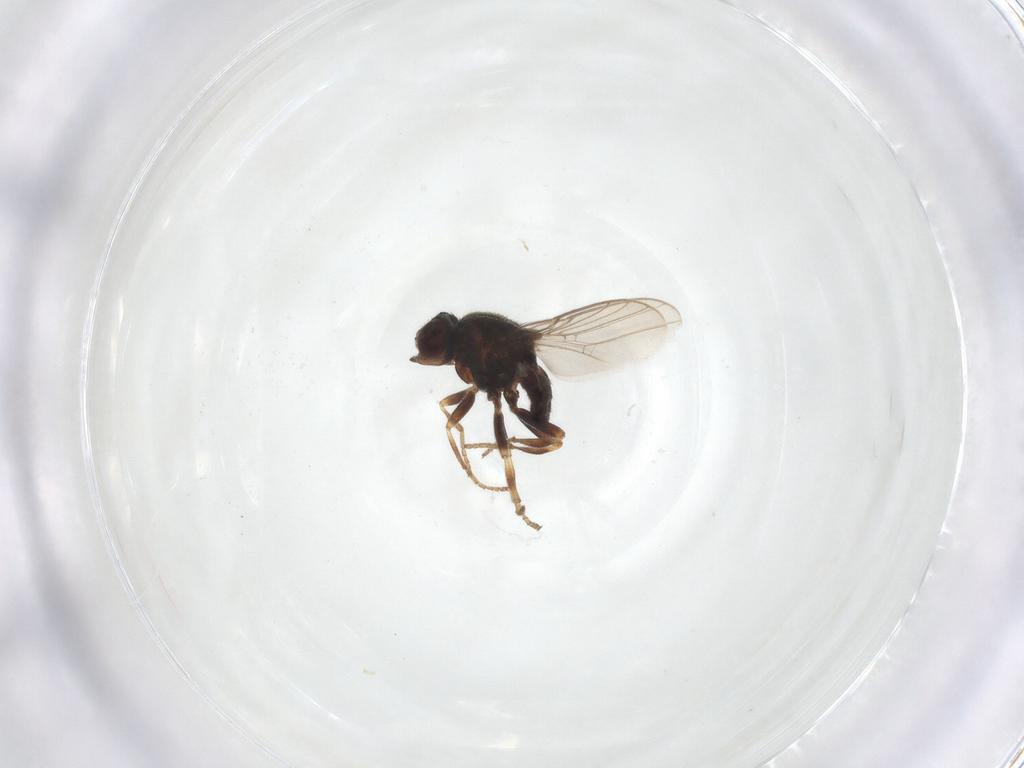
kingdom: Animalia
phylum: Arthropoda
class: Insecta
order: Diptera
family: Chloropidae
